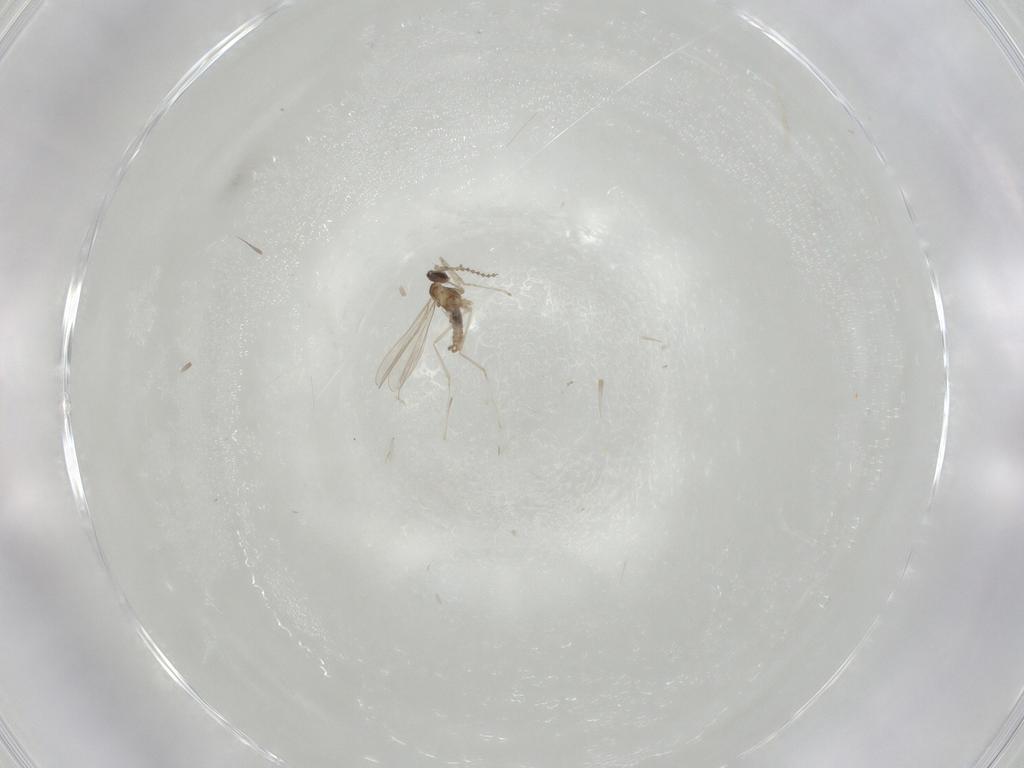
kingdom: Animalia
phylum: Arthropoda
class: Insecta
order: Diptera
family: Cecidomyiidae
